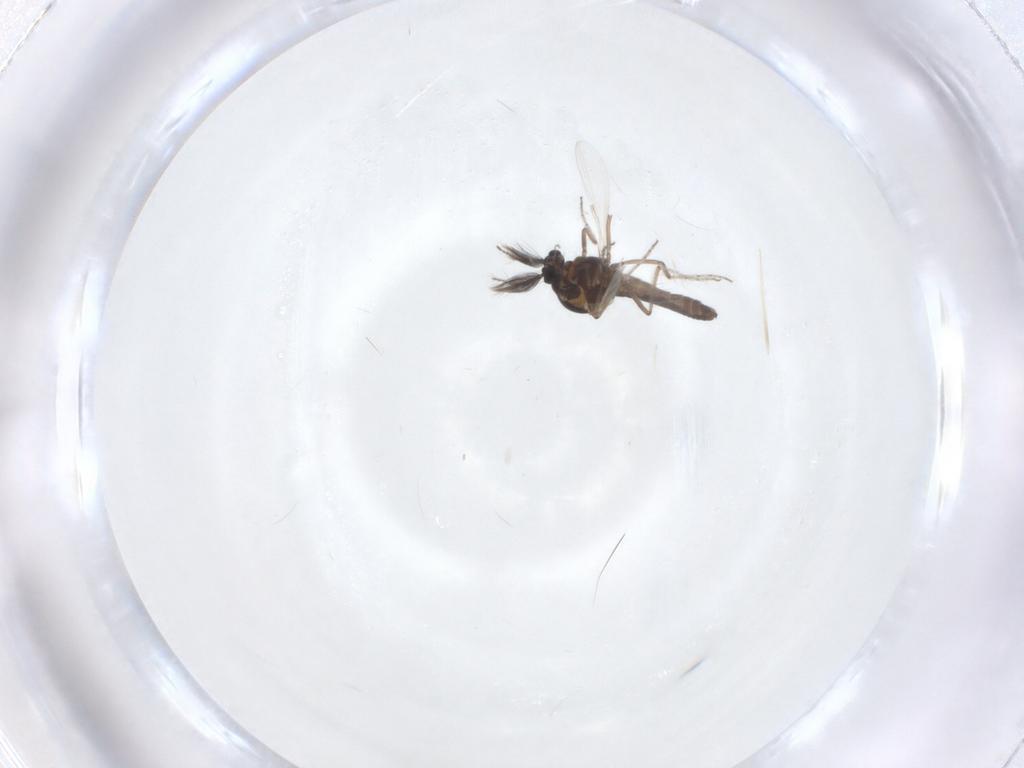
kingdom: Animalia
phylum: Arthropoda
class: Insecta
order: Diptera
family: Ceratopogonidae
